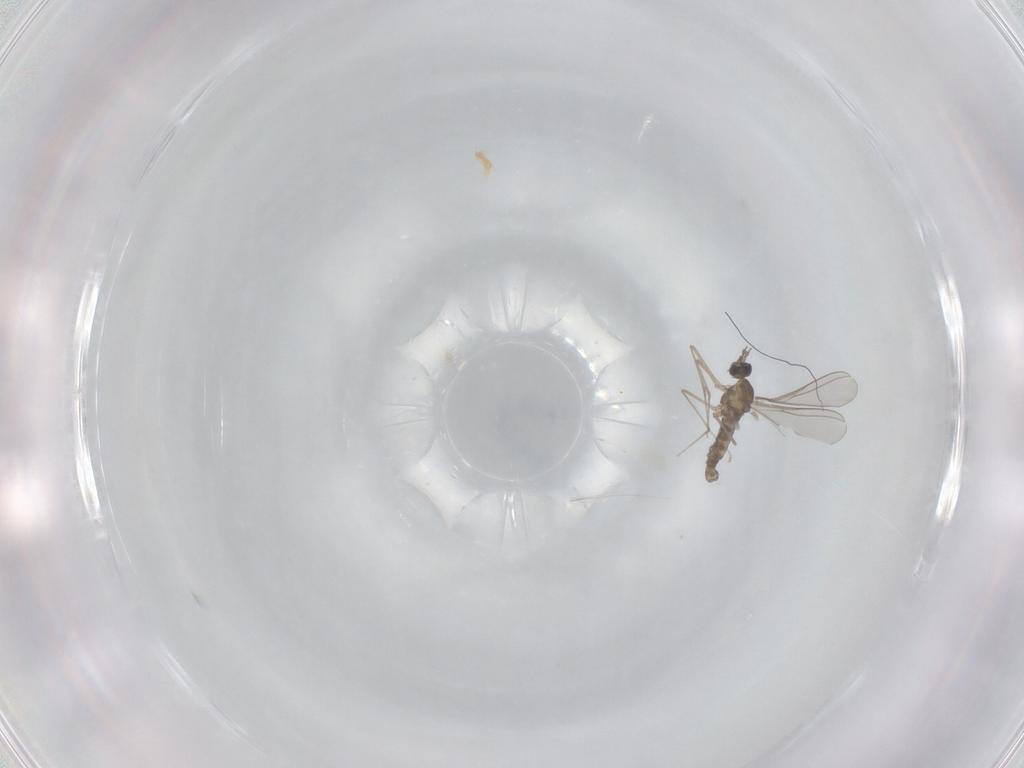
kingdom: Animalia
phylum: Arthropoda
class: Insecta
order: Diptera
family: Cecidomyiidae
